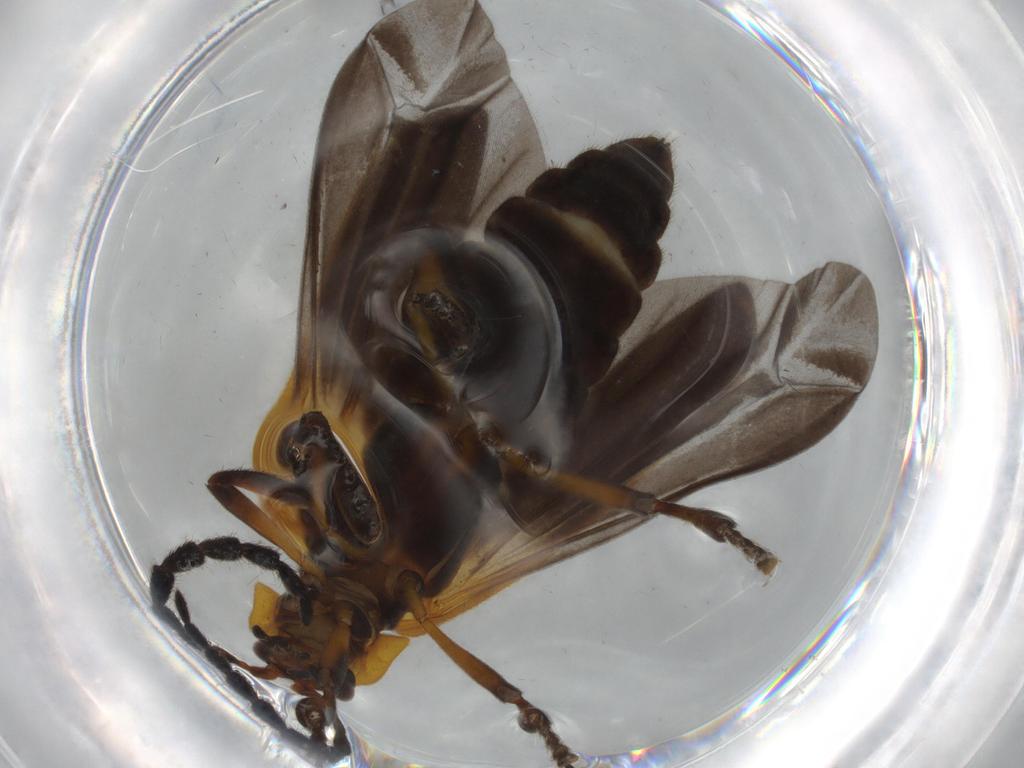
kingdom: Animalia
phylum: Arthropoda
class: Insecta
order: Coleoptera
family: Lycidae
